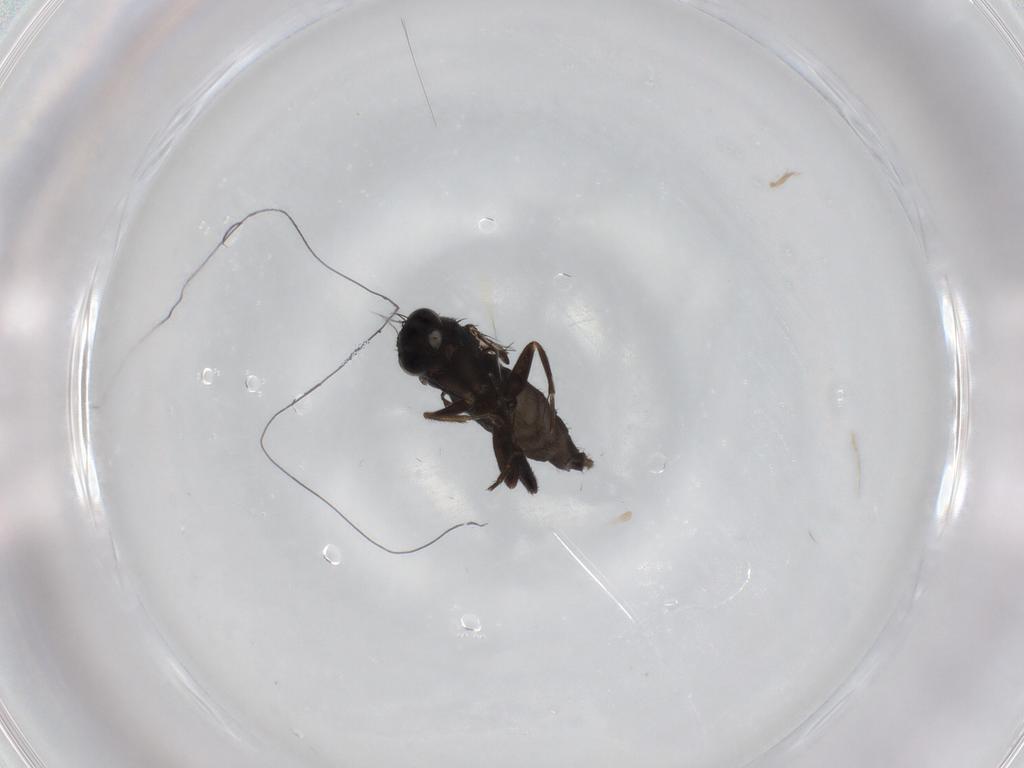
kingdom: Animalia
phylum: Arthropoda
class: Insecta
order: Diptera
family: Phoridae
